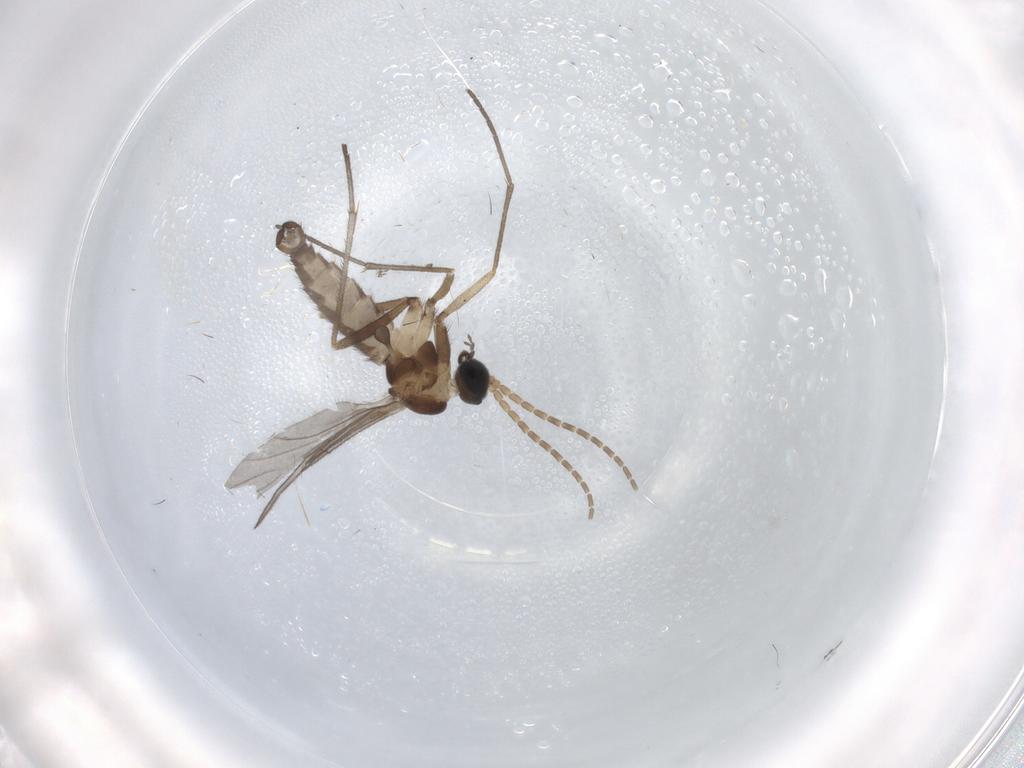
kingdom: Animalia
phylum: Arthropoda
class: Insecta
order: Diptera
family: Sciaridae
